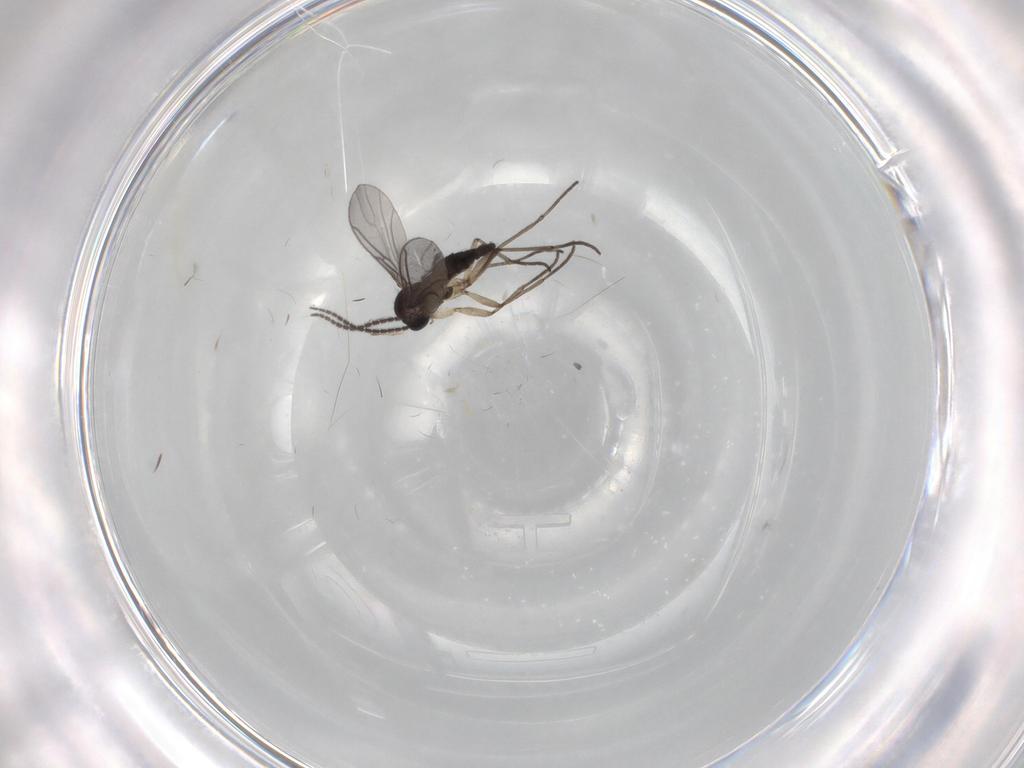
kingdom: Animalia
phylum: Arthropoda
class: Insecta
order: Diptera
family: Sciaridae
